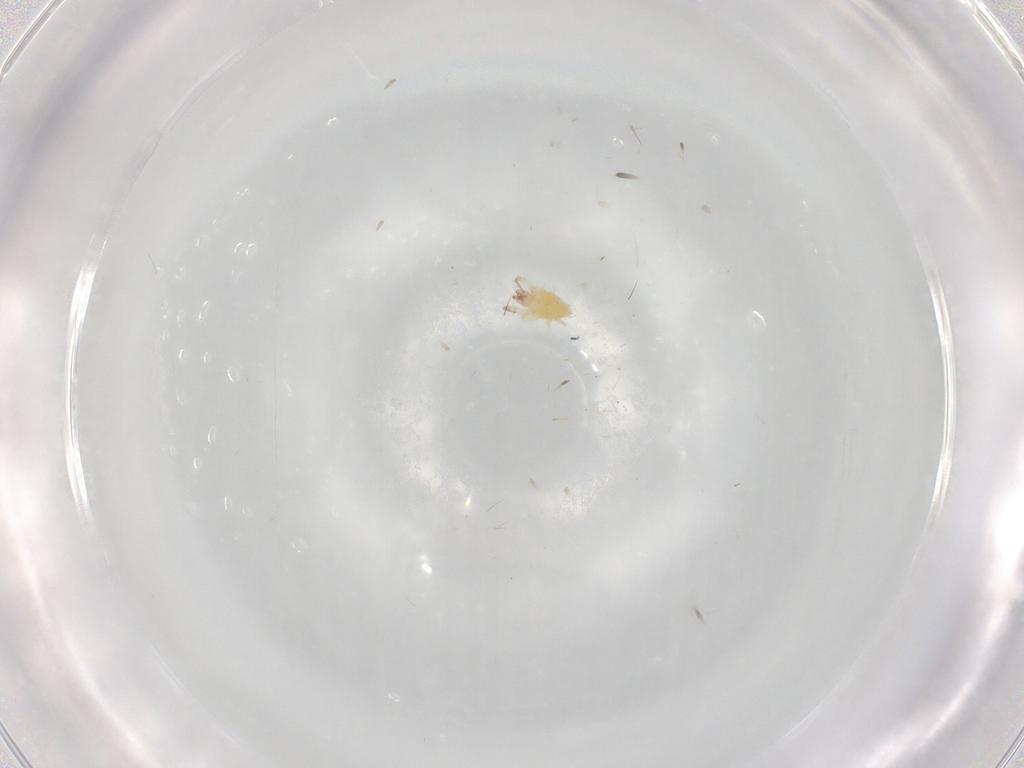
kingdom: Animalia
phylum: Arthropoda
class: Arachnida
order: Trombidiformes
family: Stigmaeidae
